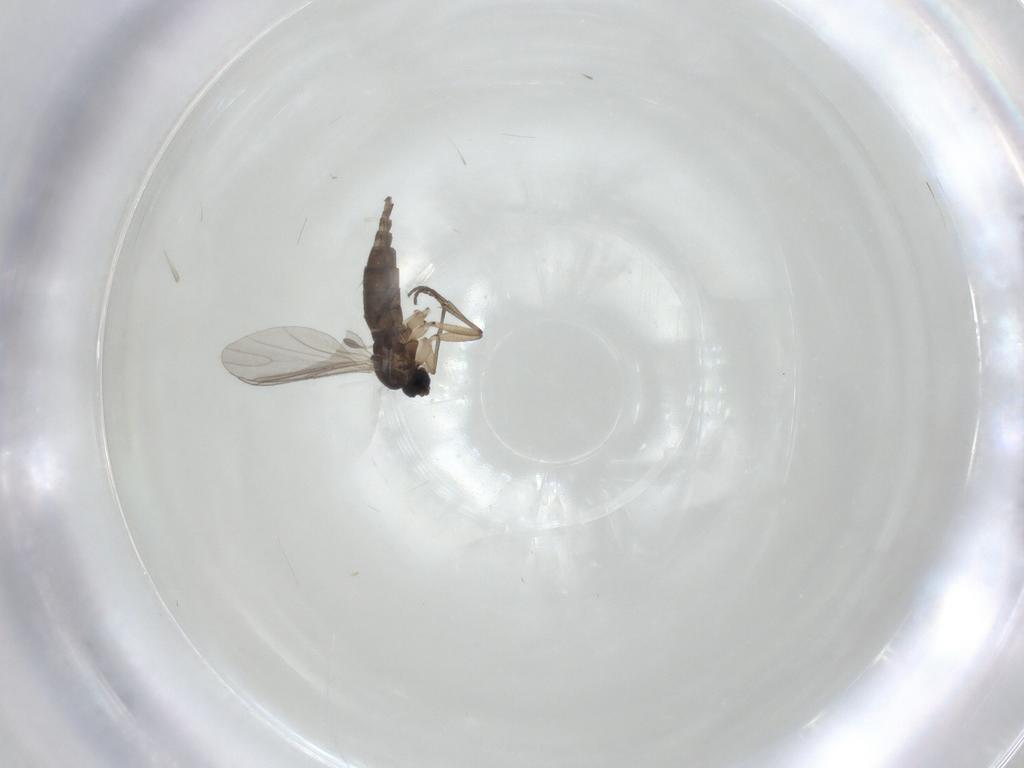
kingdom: Animalia
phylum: Arthropoda
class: Insecta
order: Diptera
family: Sciaridae
